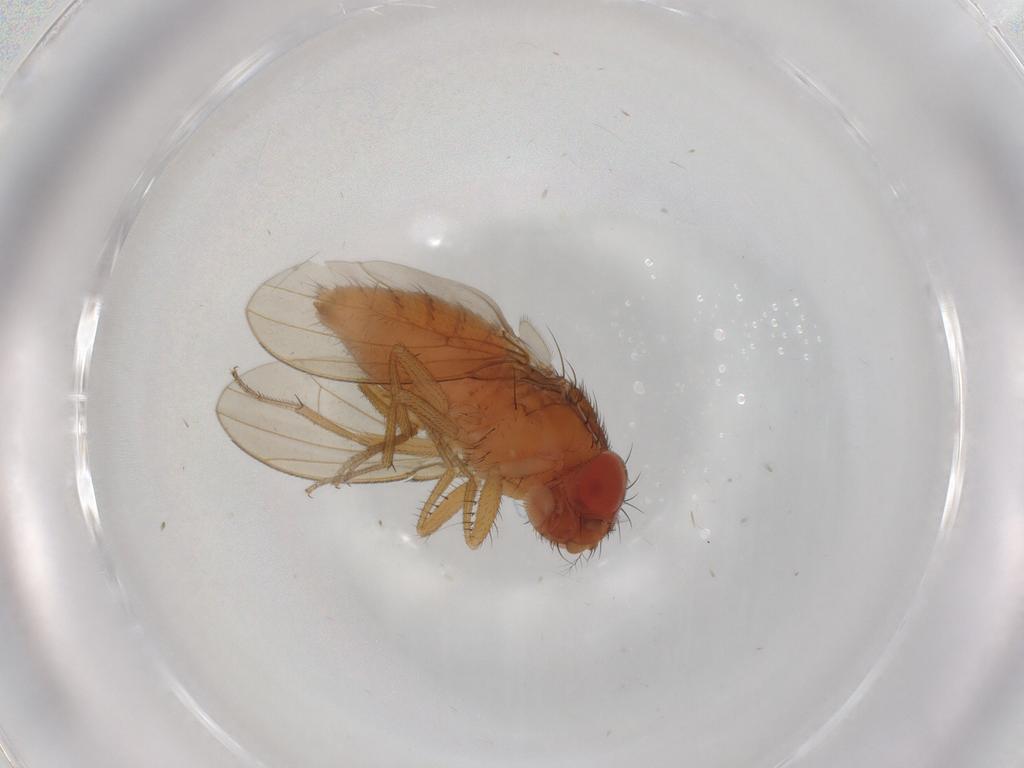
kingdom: Animalia
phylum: Arthropoda
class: Insecta
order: Diptera
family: Drosophilidae
